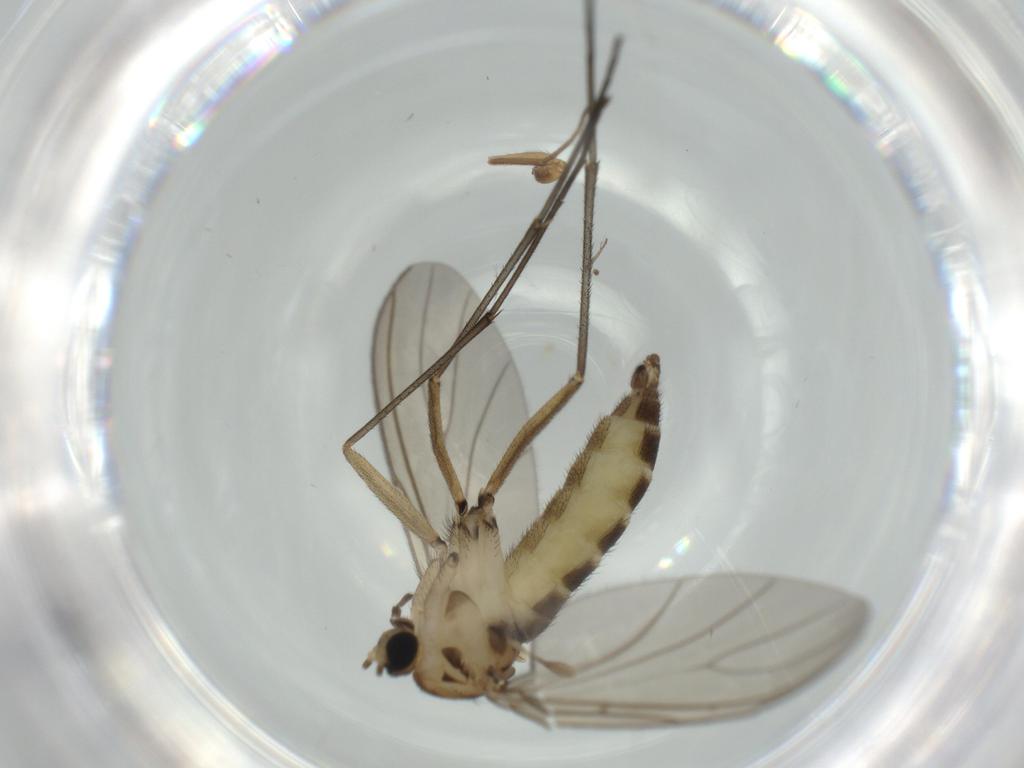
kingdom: Animalia
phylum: Arthropoda
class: Insecta
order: Diptera
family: Sciaridae
